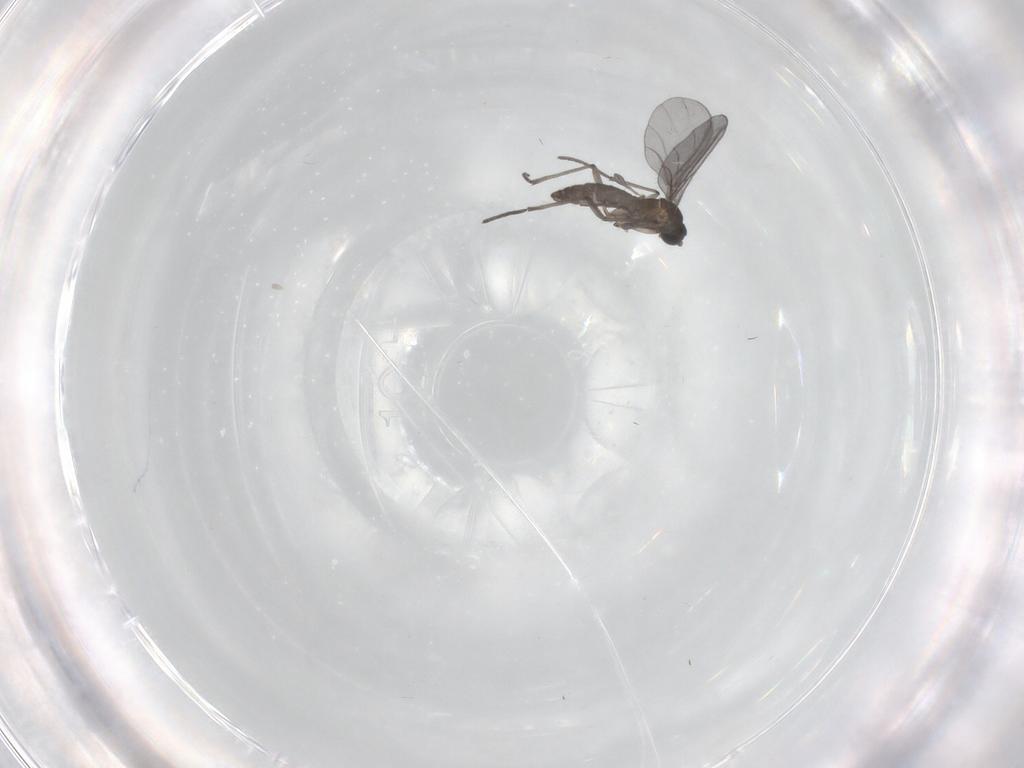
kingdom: Animalia
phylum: Arthropoda
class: Insecta
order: Diptera
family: Sciaridae
